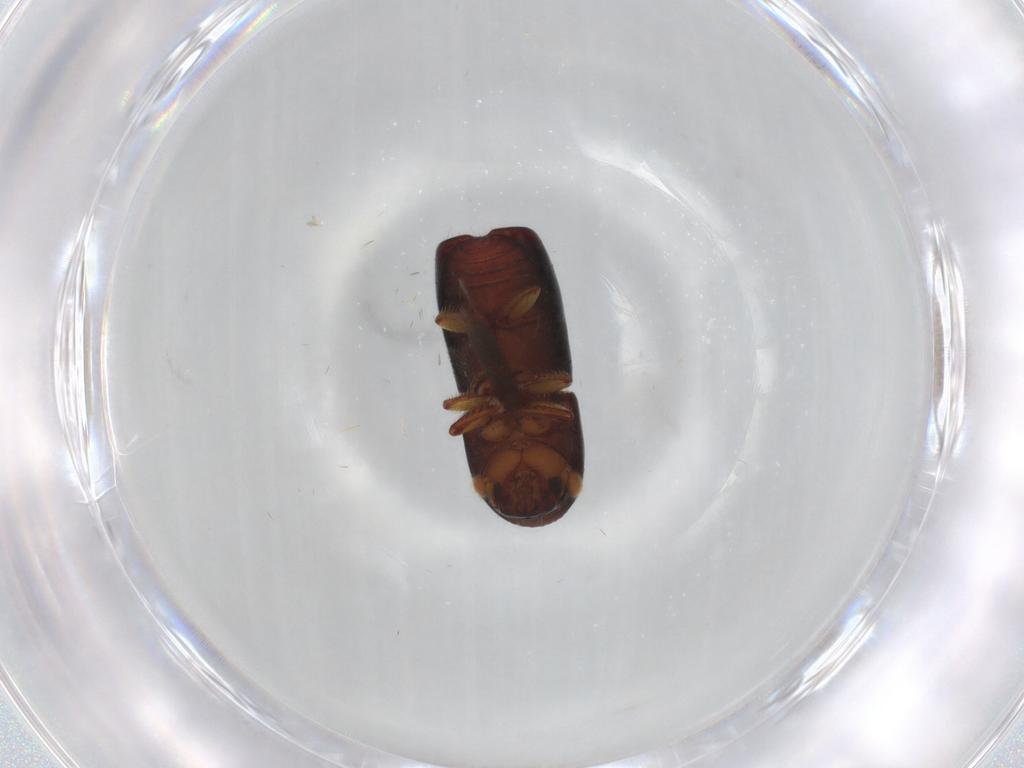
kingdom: Animalia
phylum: Arthropoda
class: Insecta
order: Coleoptera
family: Curculionidae
